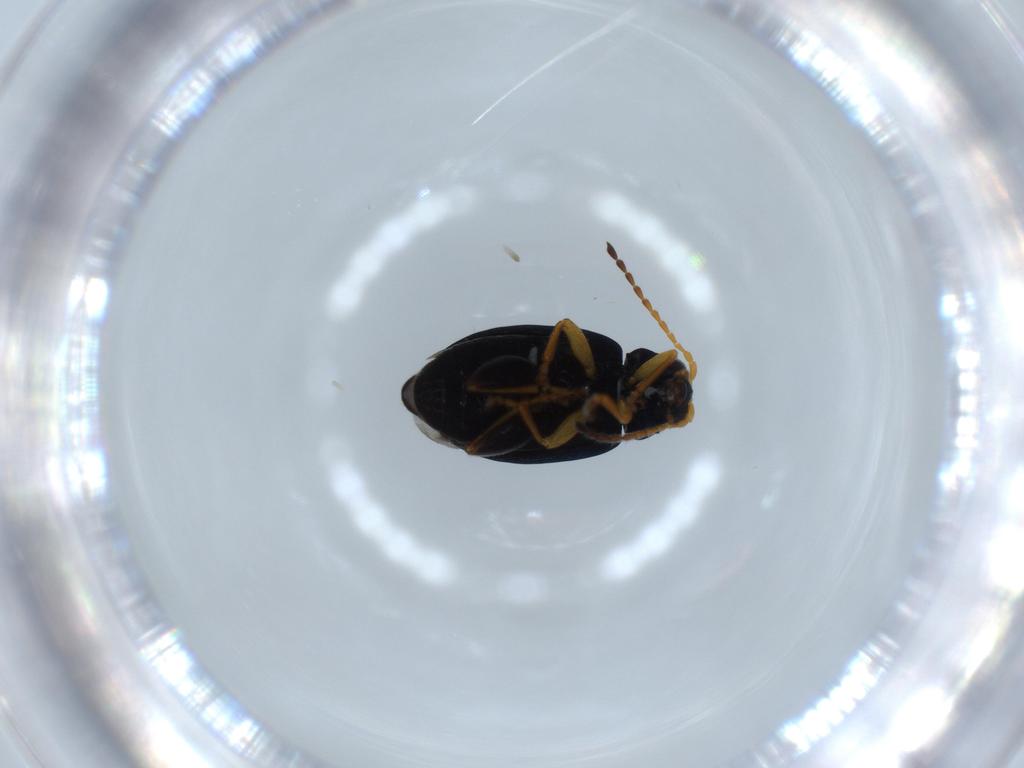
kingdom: Animalia
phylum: Arthropoda
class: Insecta
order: Coleoptera
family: Chrysomelidae
